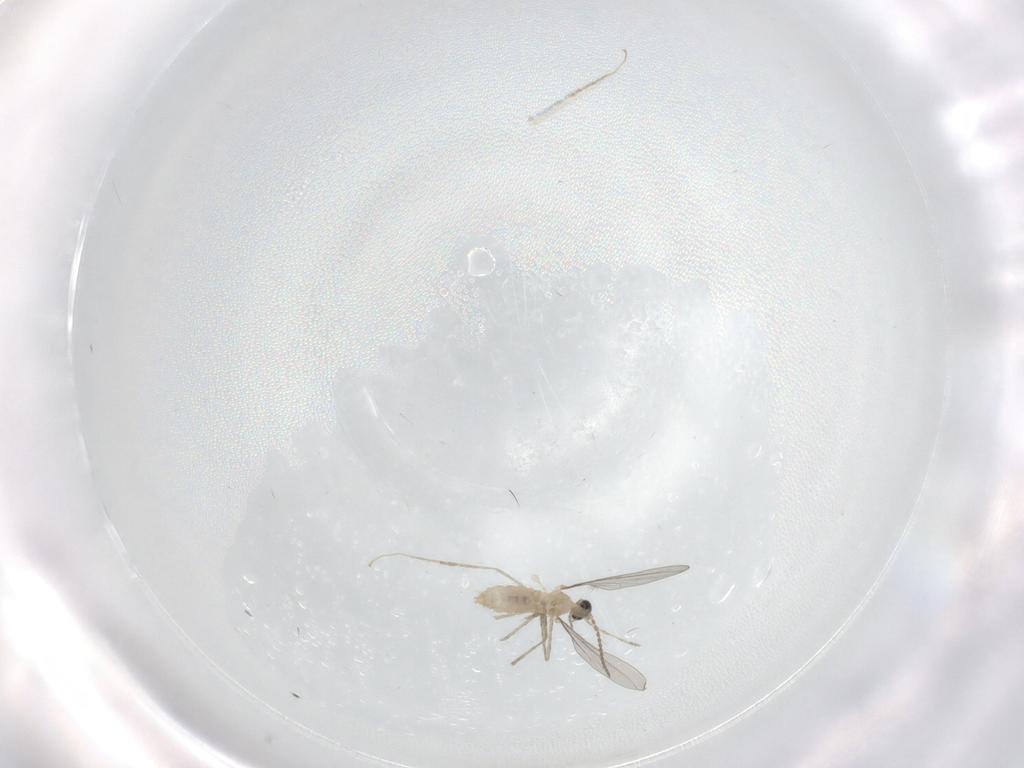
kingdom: Animalia
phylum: Arthropoda
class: Insecta
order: Diptera
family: Cecidomyiidae
